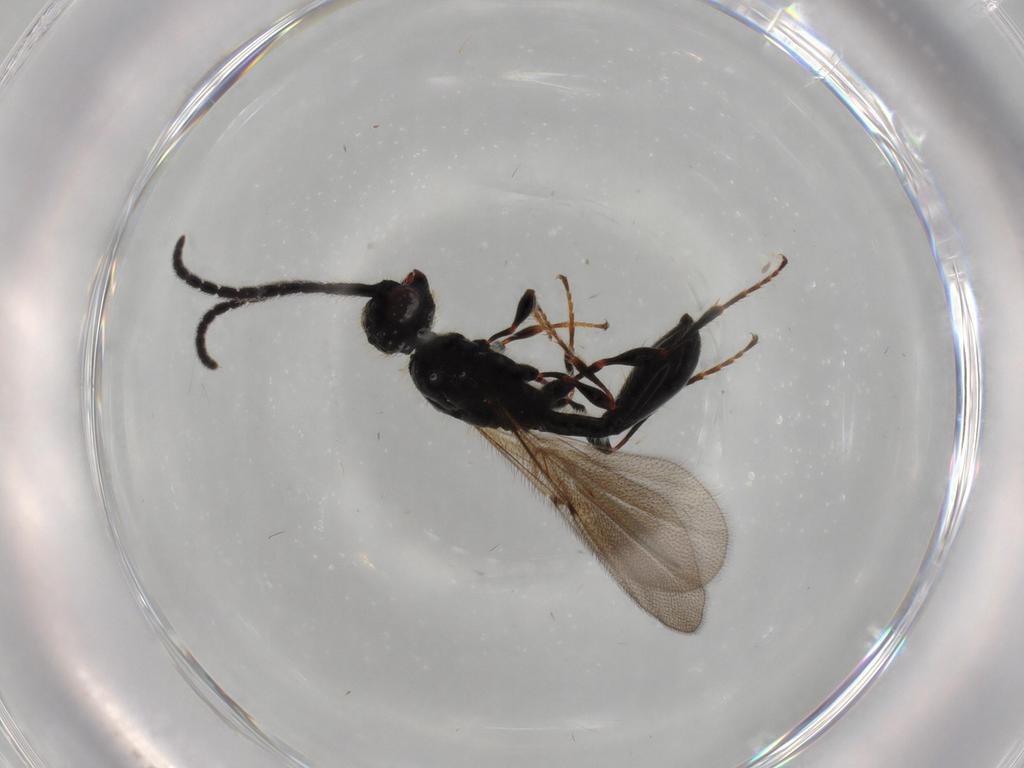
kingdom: Animalia
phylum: Arthropoda
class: Insecta
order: Hymenoptera
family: Diapriidae
